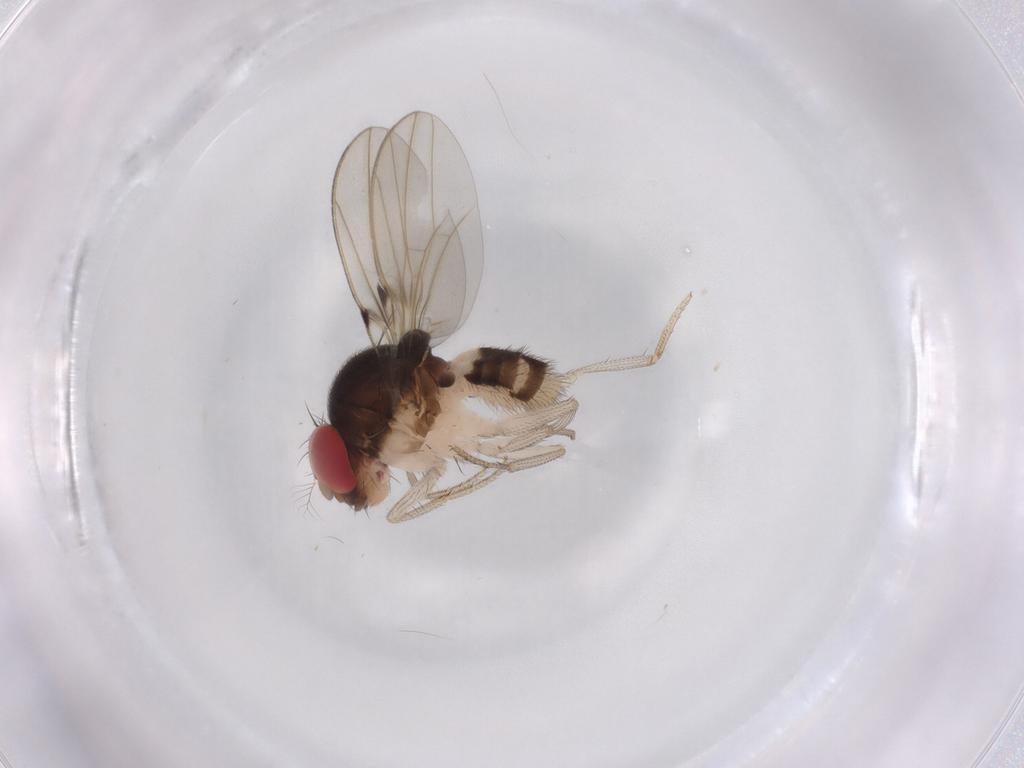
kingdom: Animalia
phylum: Arthropoda
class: Insecta
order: Diptera
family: Drosophilidae
